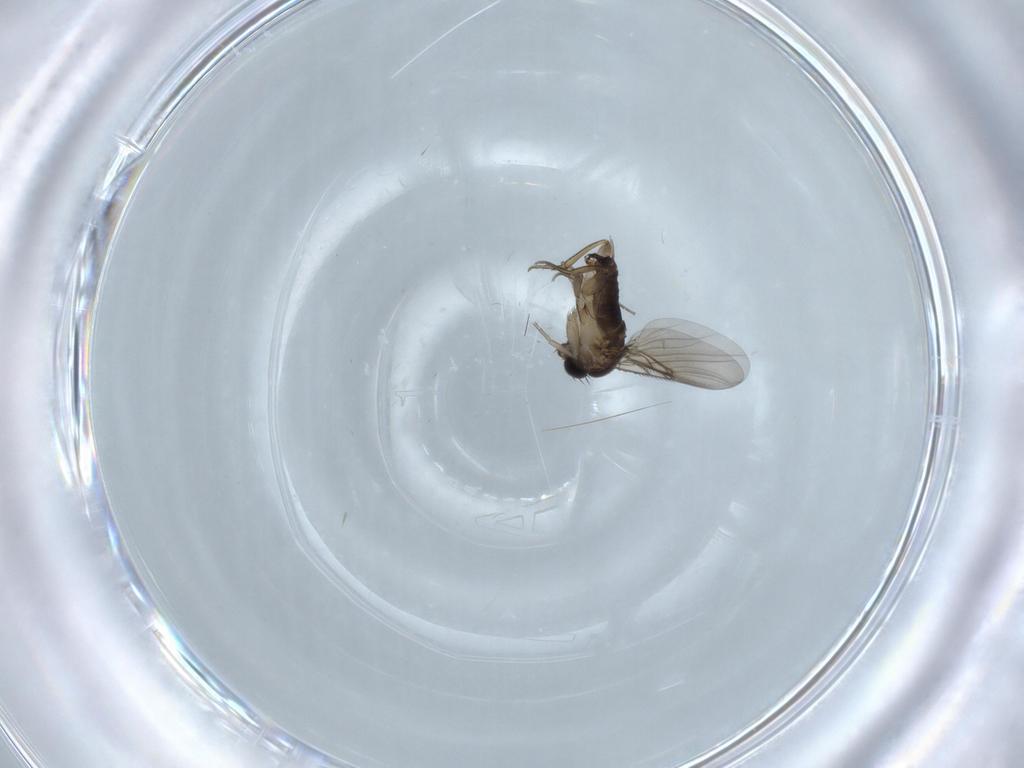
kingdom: Animalia
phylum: Arthropoda
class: Insecta
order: Diptera
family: Phoridae
